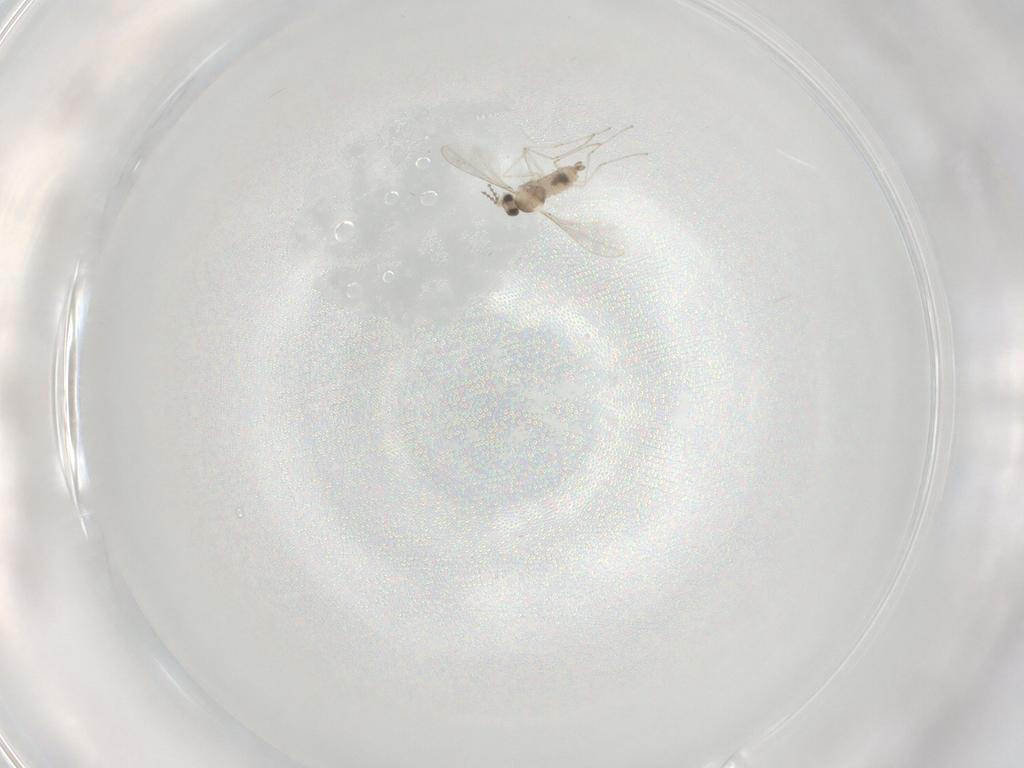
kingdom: Animalia
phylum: Arthropoda
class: Insecta
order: Diptera
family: Cecidomyiidae
